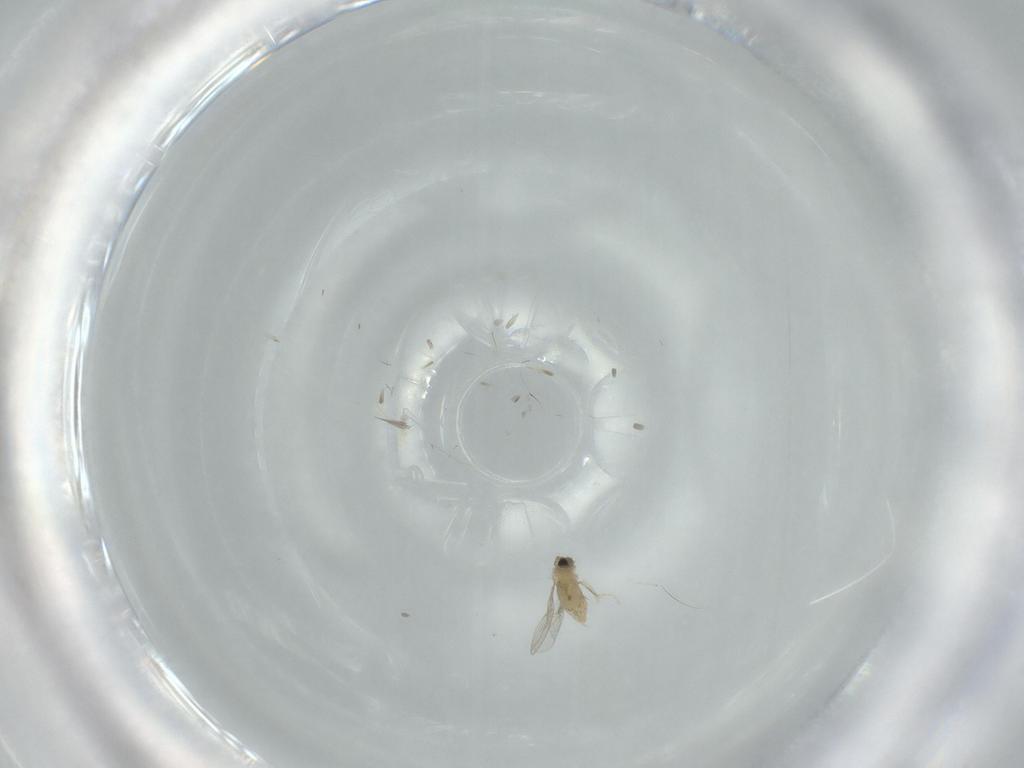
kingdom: Animalia
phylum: Arthropoda
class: Insecta
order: Diptera
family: Cecidomyiidae
